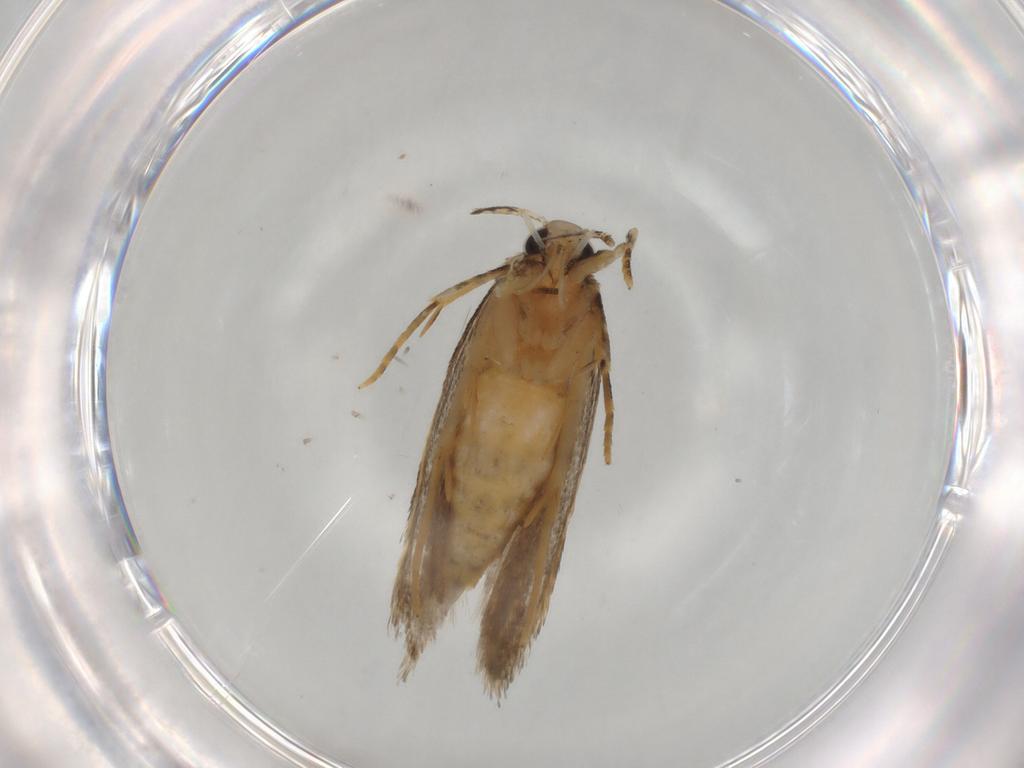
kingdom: Animalia
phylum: Arthropoda
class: Insecta
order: Lepidoptera
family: Autostichidae
